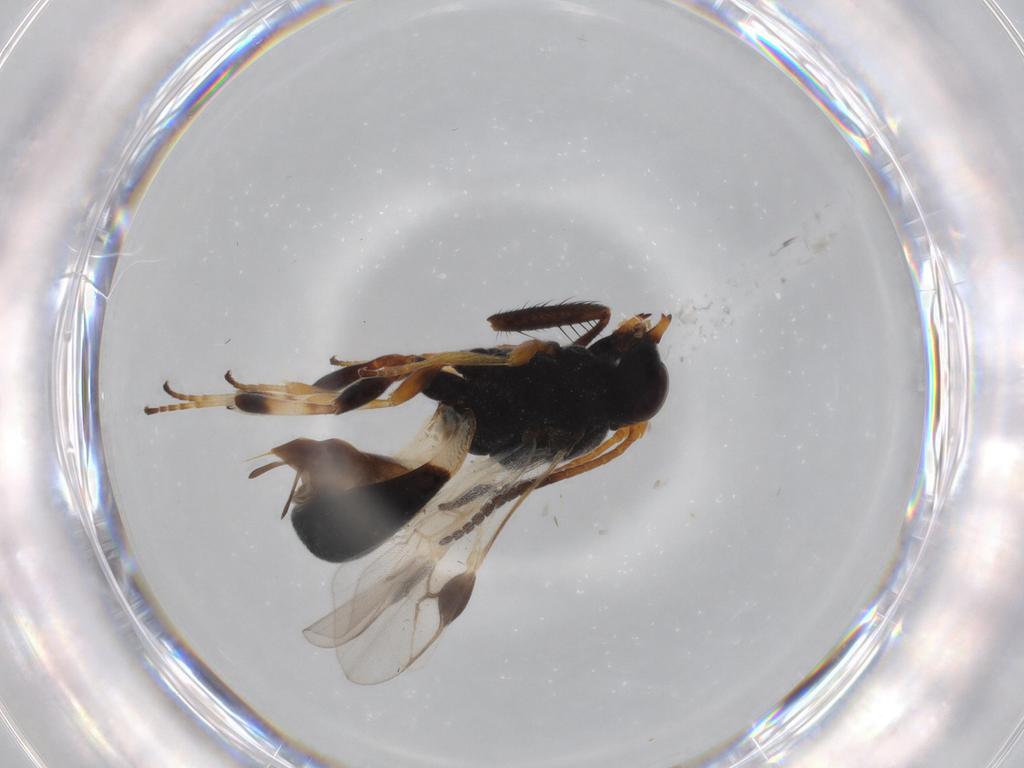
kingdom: Animalia
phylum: Arthropoda
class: Insecta
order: Hymenoptera
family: Braconidae
